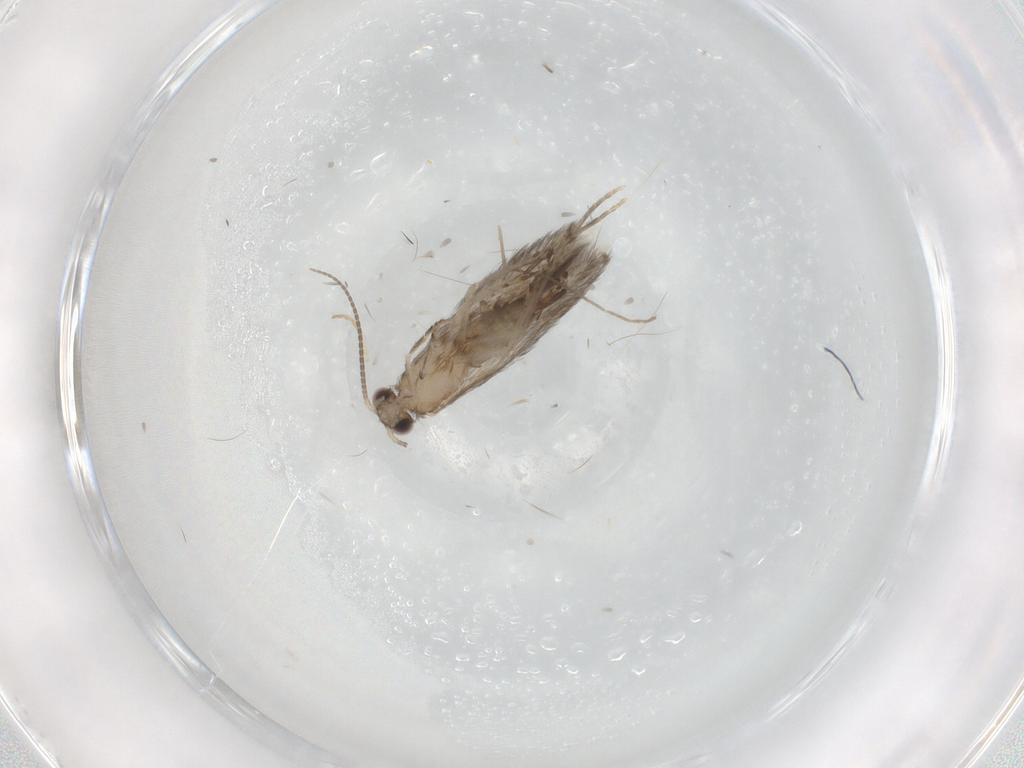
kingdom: Animalia
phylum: Arthropoda
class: Insecta
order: Trichoptera
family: Hydroptilidae
